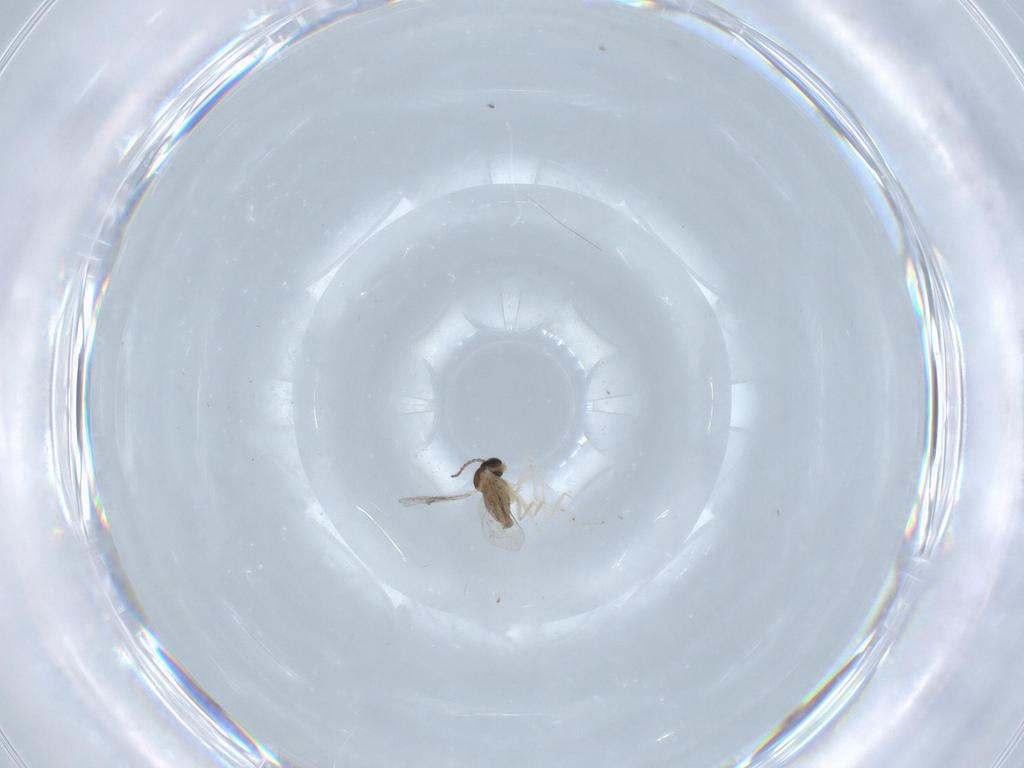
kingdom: Animalia
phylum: Arthropoda
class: Insecta
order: Diptera
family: Cecidomyiidae
